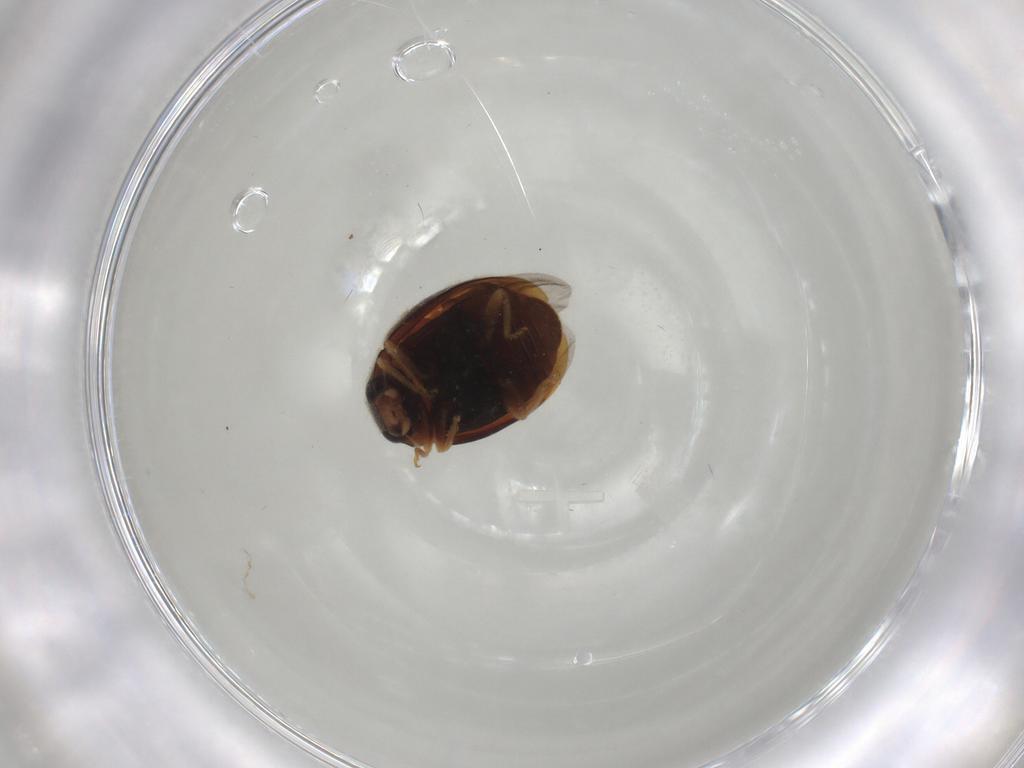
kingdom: Animalia
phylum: Arthropoda
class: Insecta
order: Coleoptera
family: Coccinellidae
